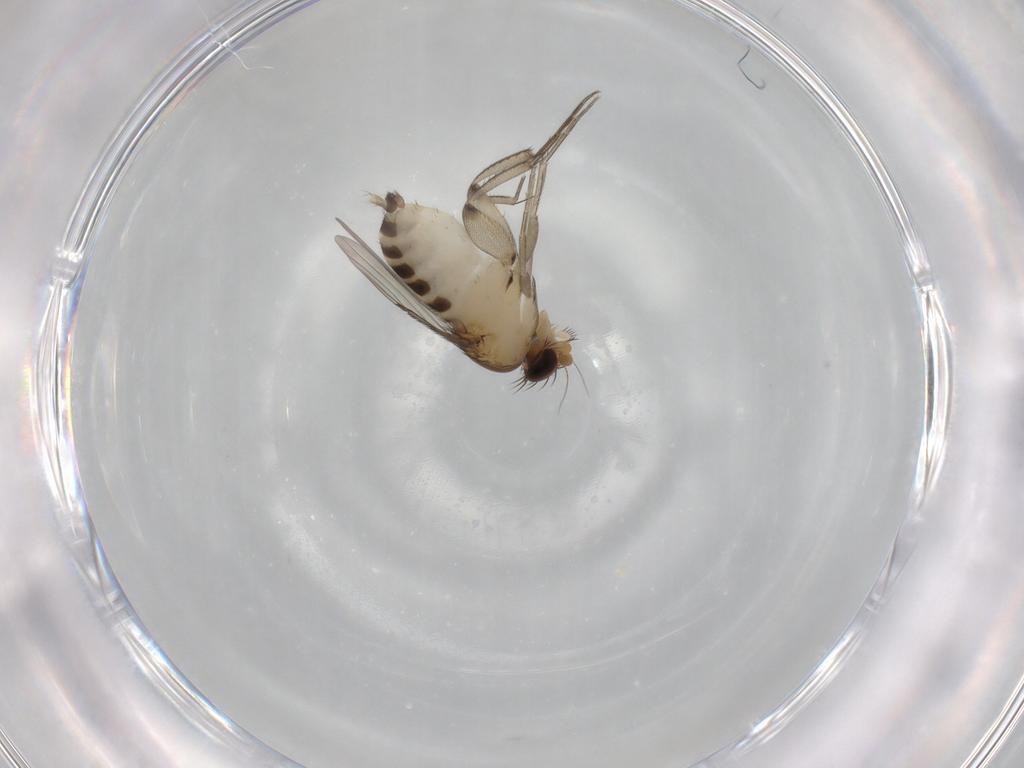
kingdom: Animalia
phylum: Arthropoda
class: Insecta
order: Diptera
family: Phoridae
